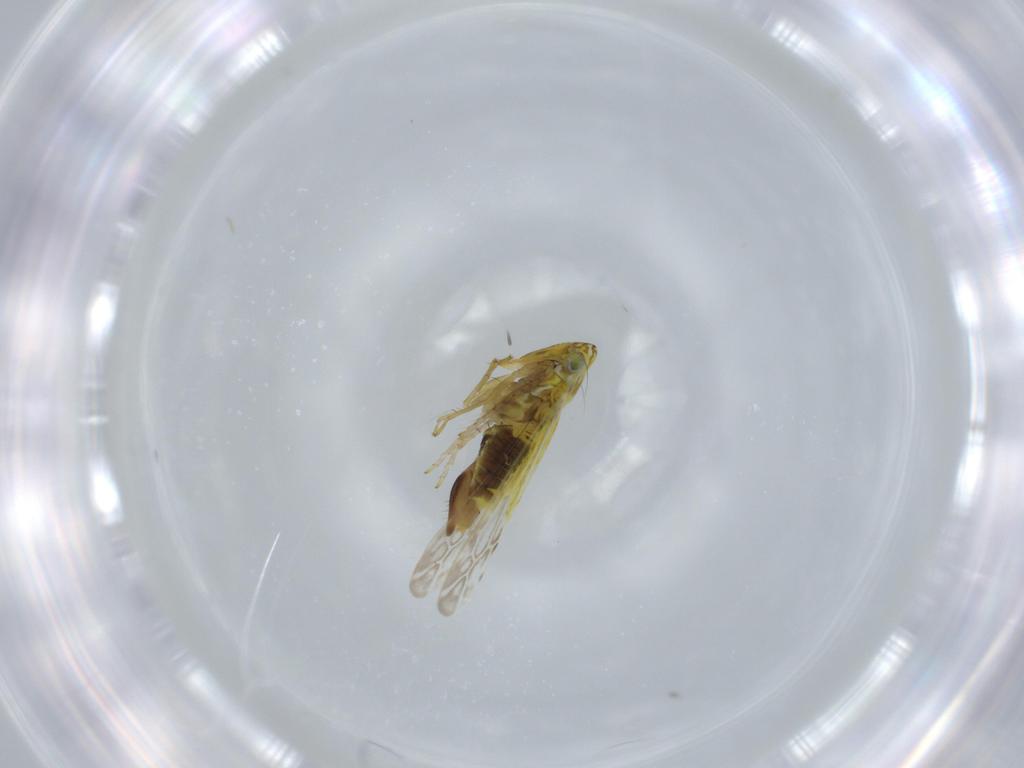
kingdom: Animalia
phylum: Arthropoda
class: Insecta
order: Hemiptera
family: Cicadellidae
